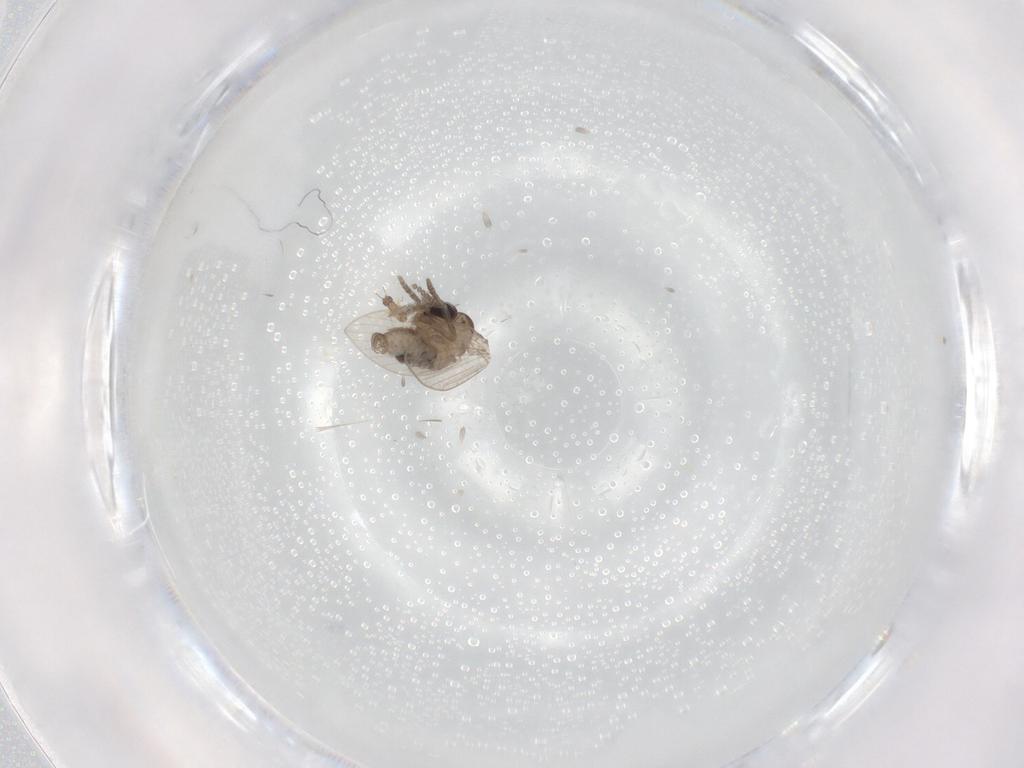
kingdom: Animalia
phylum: Arthropoda
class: Insecta
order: Diptera
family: Psychodidae
